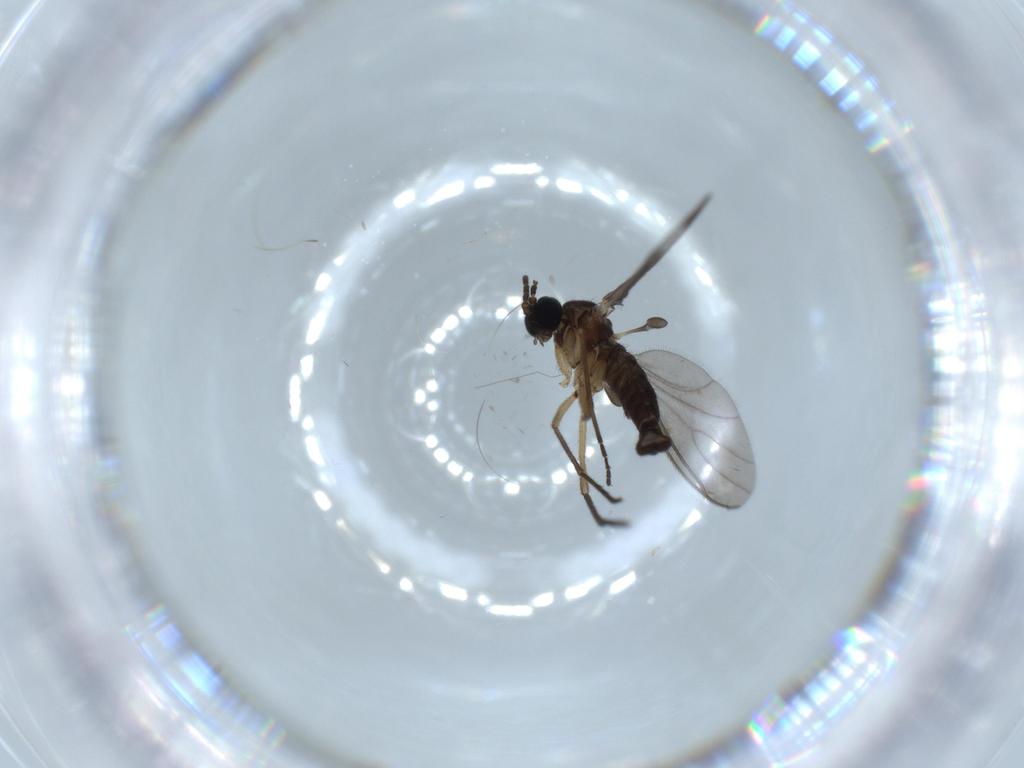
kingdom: Animalia
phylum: Arthropoda
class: Insecta
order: Diptera
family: Sciaridae
